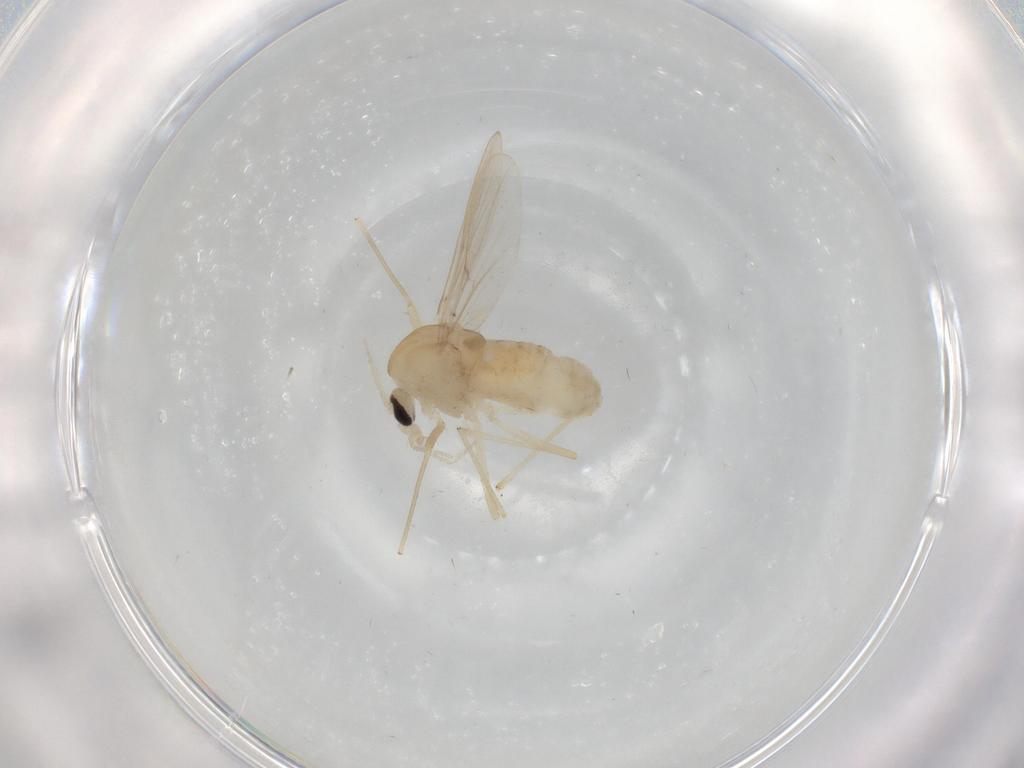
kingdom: Animalia
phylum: Arthropoda
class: Insecta
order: Diptera
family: Chironomidae
